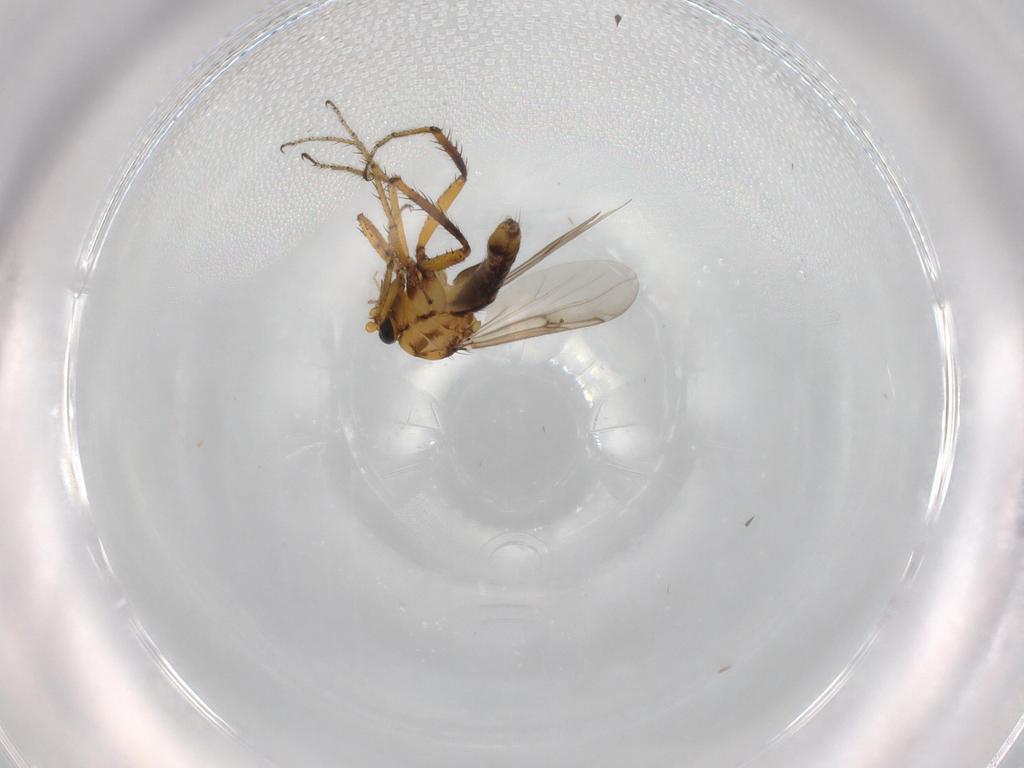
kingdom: Animalia
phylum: Arthropoda
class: Insecta
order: Diptera
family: Ceratopogonidae
